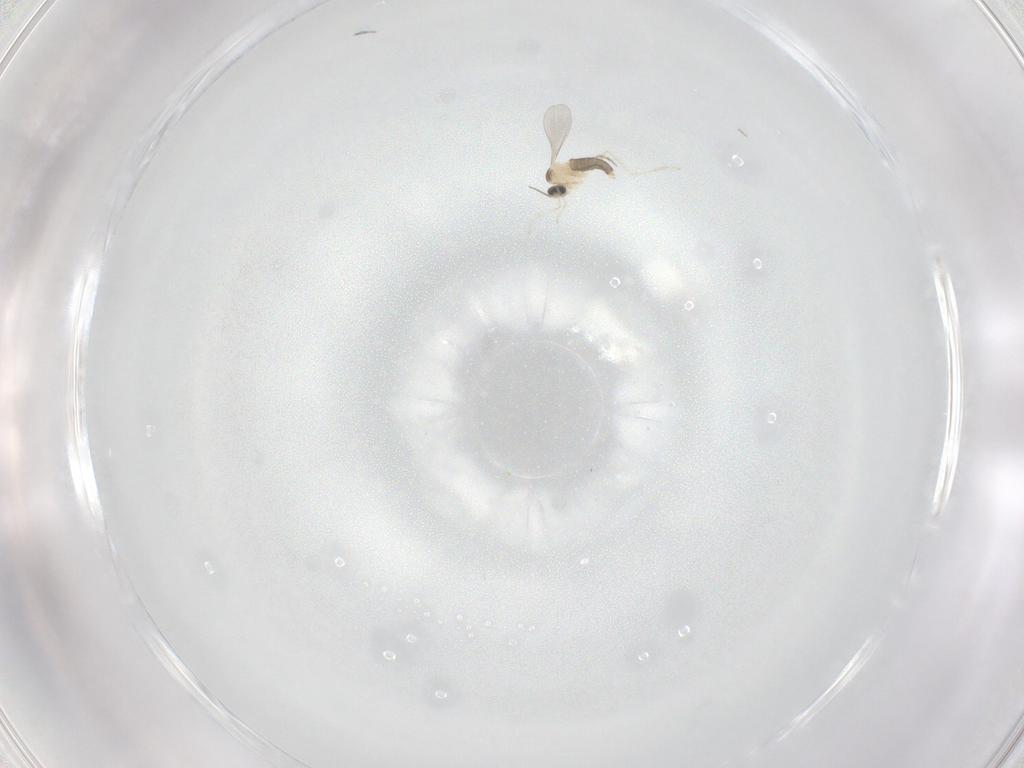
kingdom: Animalia
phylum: Arthropoda
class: Insecta
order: Diptera
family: Cecidomyiidae
